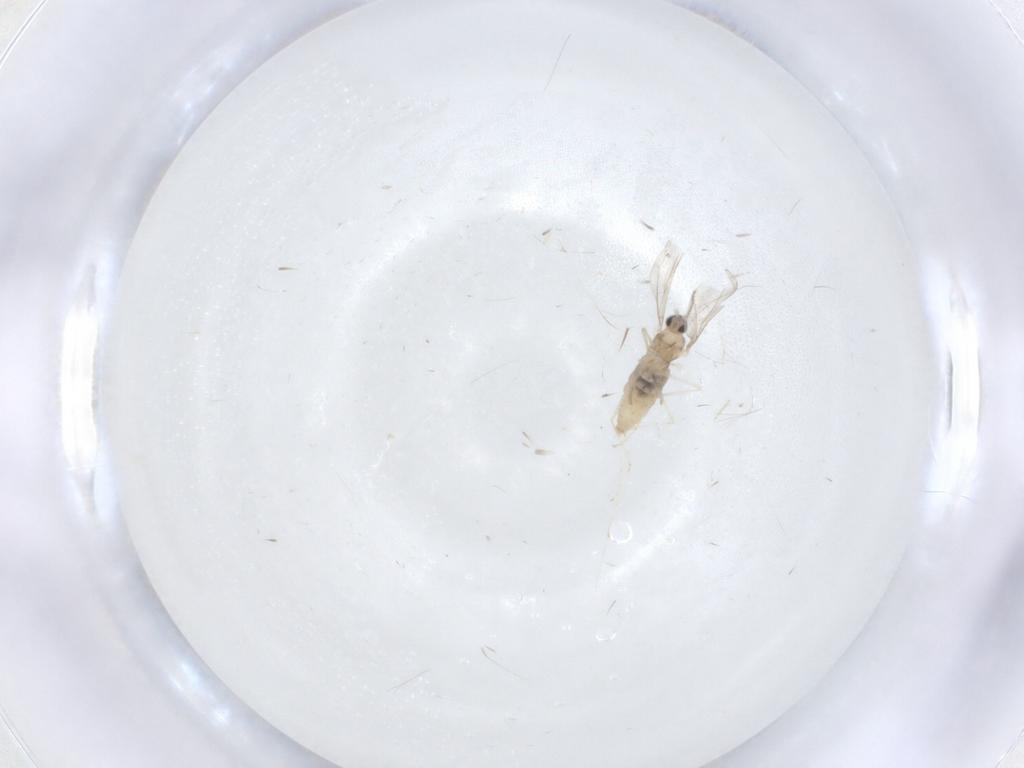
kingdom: Animalia
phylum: Arthropoda
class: Insecta
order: Diptera
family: Cecidomyiidae
